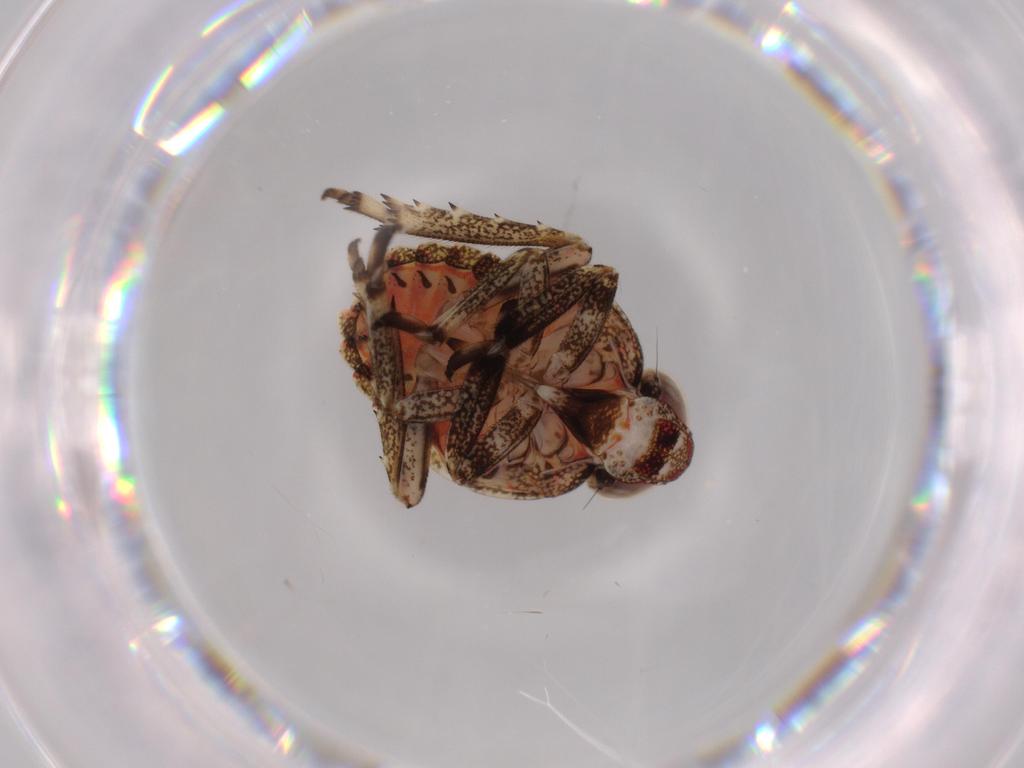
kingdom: Animalia
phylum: Arthropoda
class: Insecta
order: Hemiptera
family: Issidae
